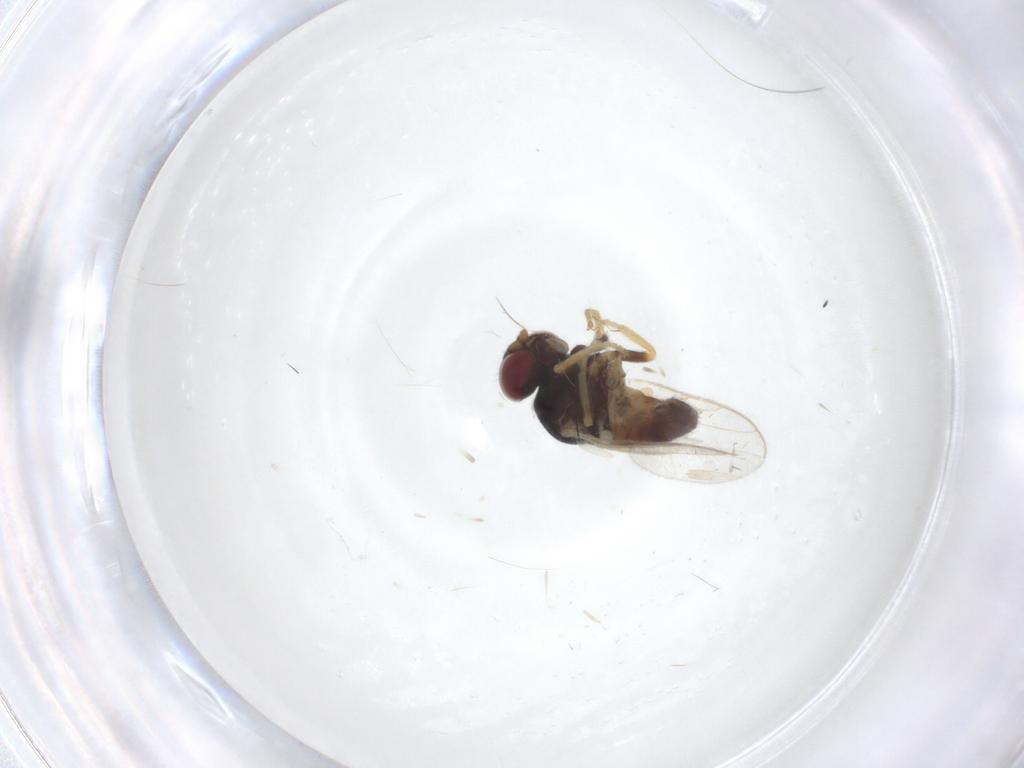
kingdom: Animalia
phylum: Arthropoda
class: Insecta
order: Diptera
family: Chloropidae
